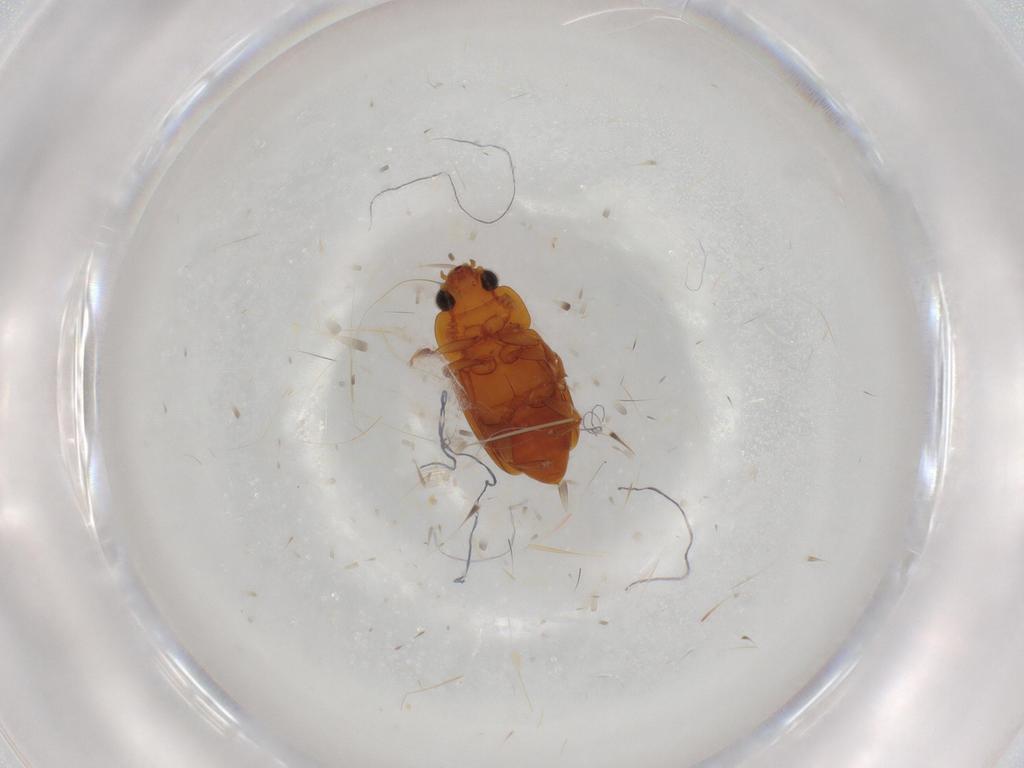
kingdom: Animalia
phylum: Arthropoda
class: Insecta
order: Coleoptera
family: Nitidulidae
